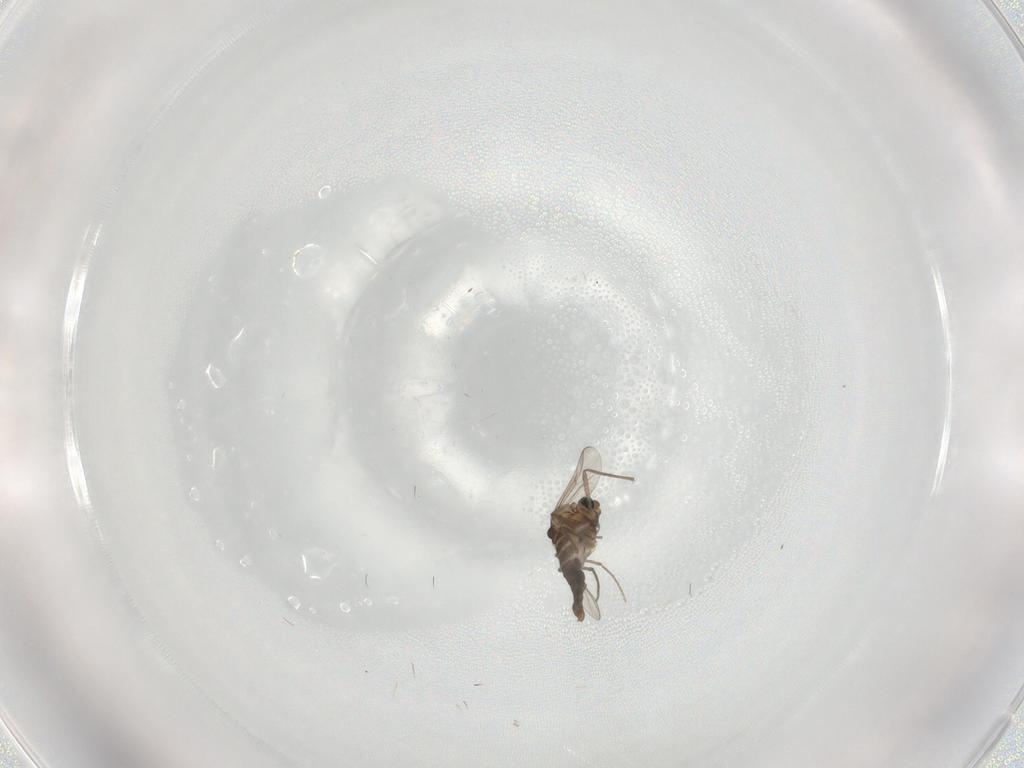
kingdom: Animalia
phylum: Arthropoda
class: Insecta
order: Diptera
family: Chironomidae
